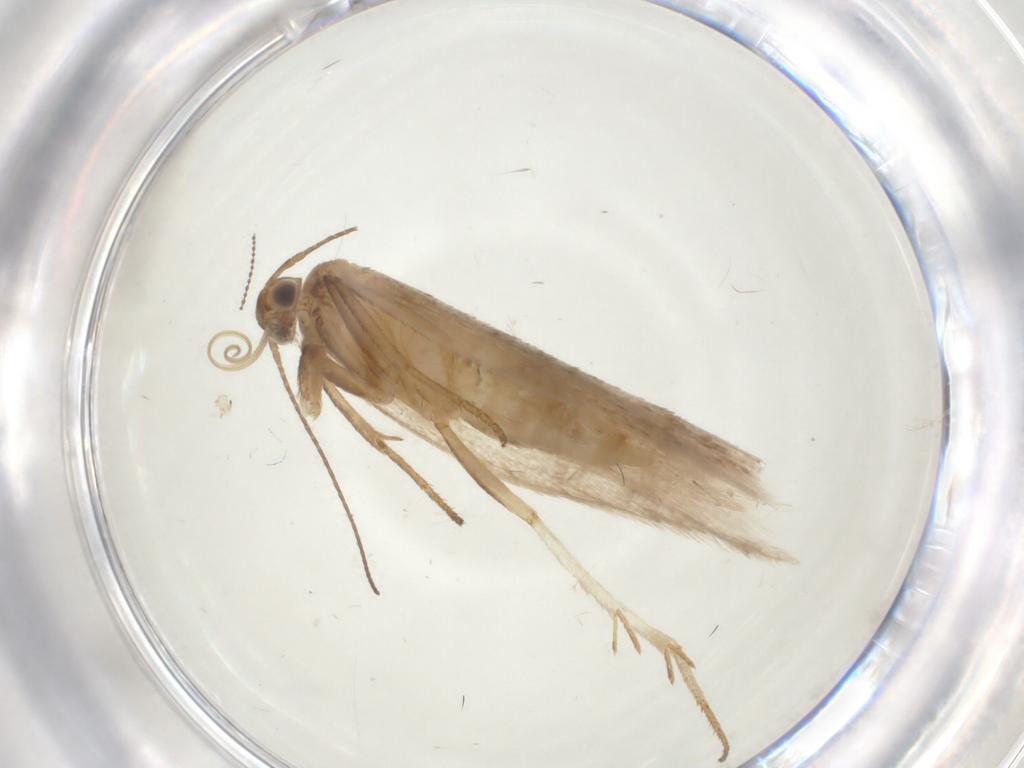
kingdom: Animalia
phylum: Arthropoda
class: Insecta
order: Lepidoptera
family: Gelechiidae
